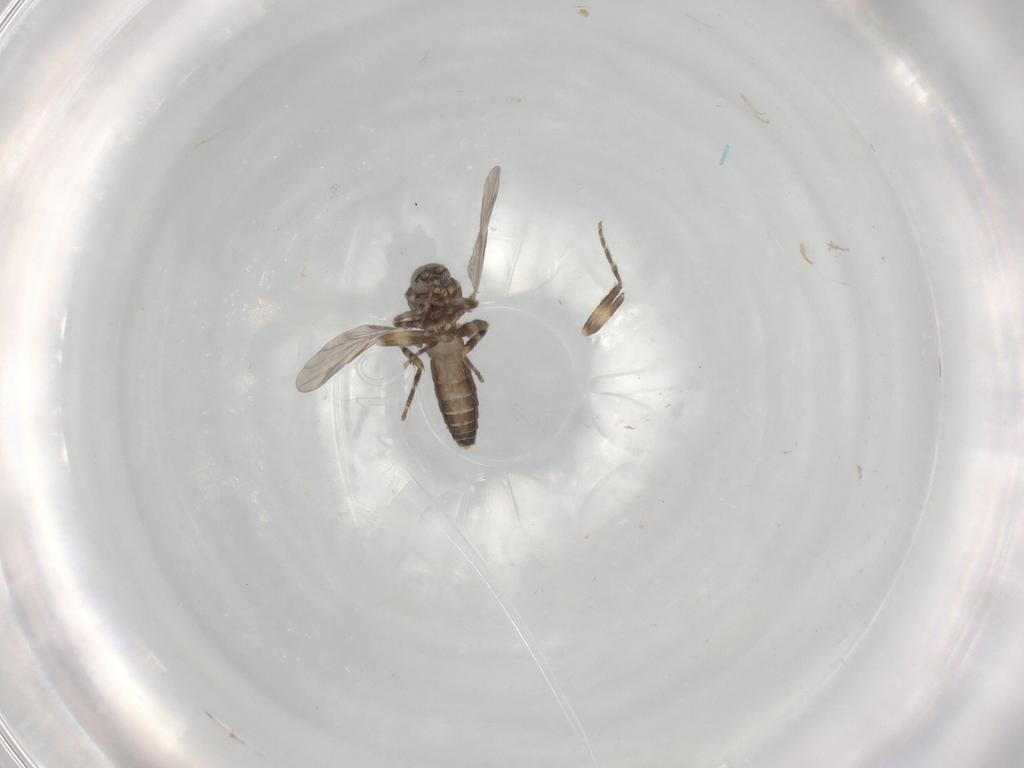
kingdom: Animalia
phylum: Arthropoda
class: Insecta
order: Diptera
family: Ceratopogonidae
